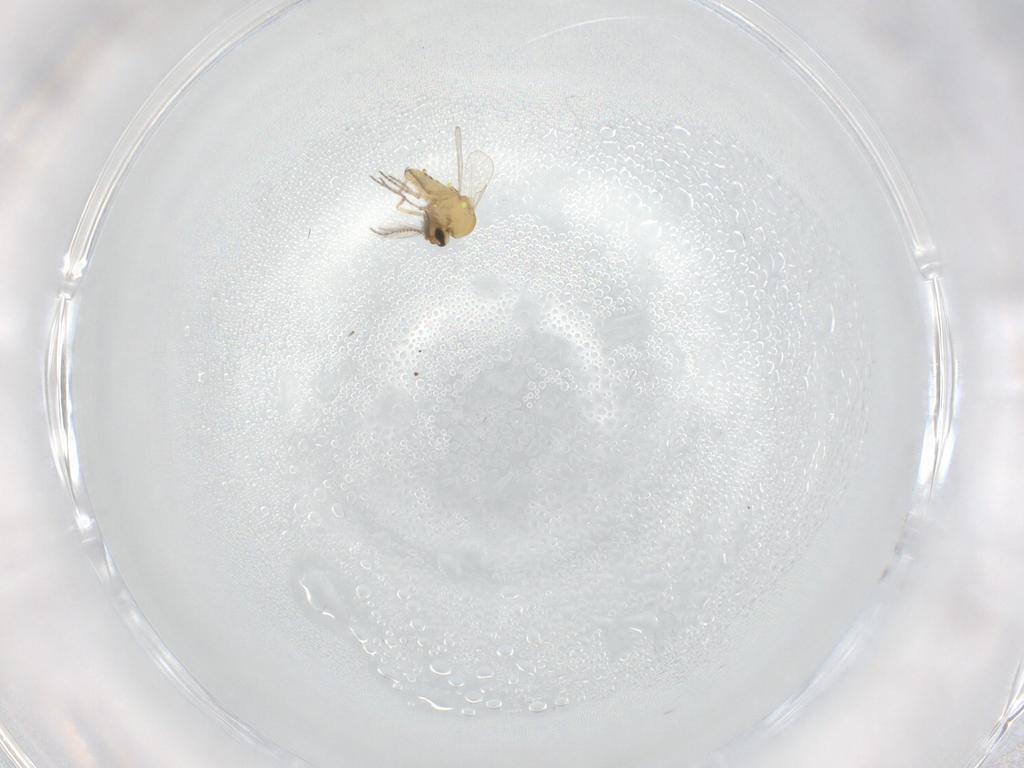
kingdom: Animalia
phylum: Arthropoda
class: Insecta
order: Diptera
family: Ceratopogonidae
